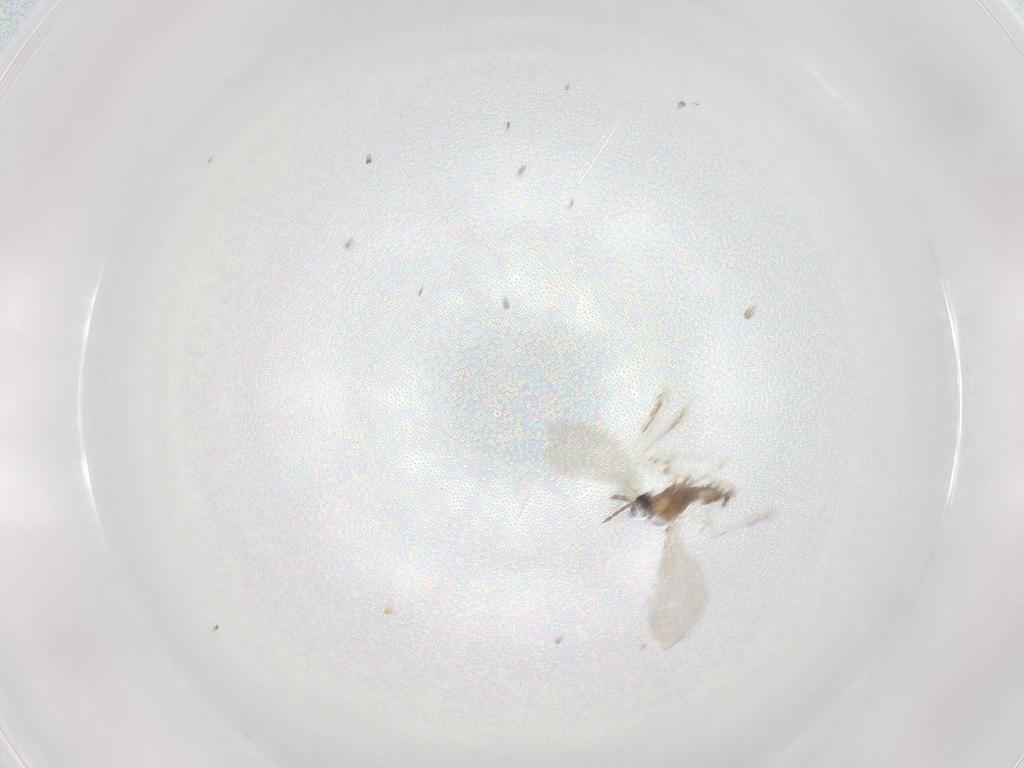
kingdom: Animalia
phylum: Arthropoda
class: Insecta
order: Diptera
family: Cecidomyiidae
